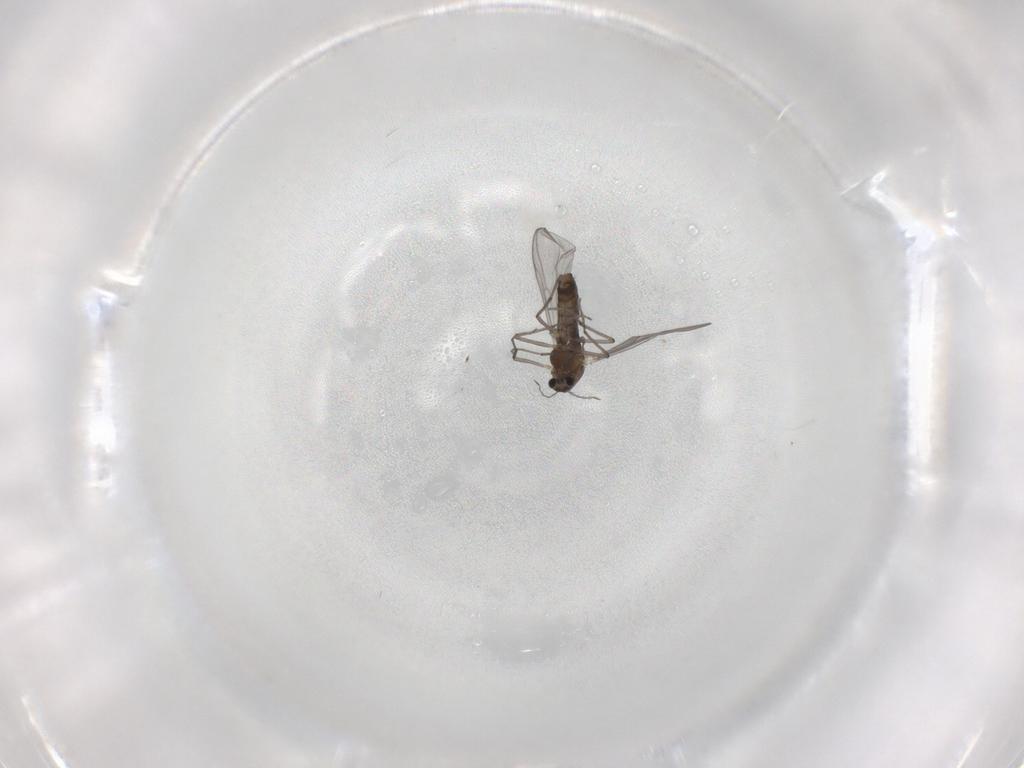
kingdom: Animalia
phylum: Arthropoda
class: Insecta
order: Diptera
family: Chironomidae
